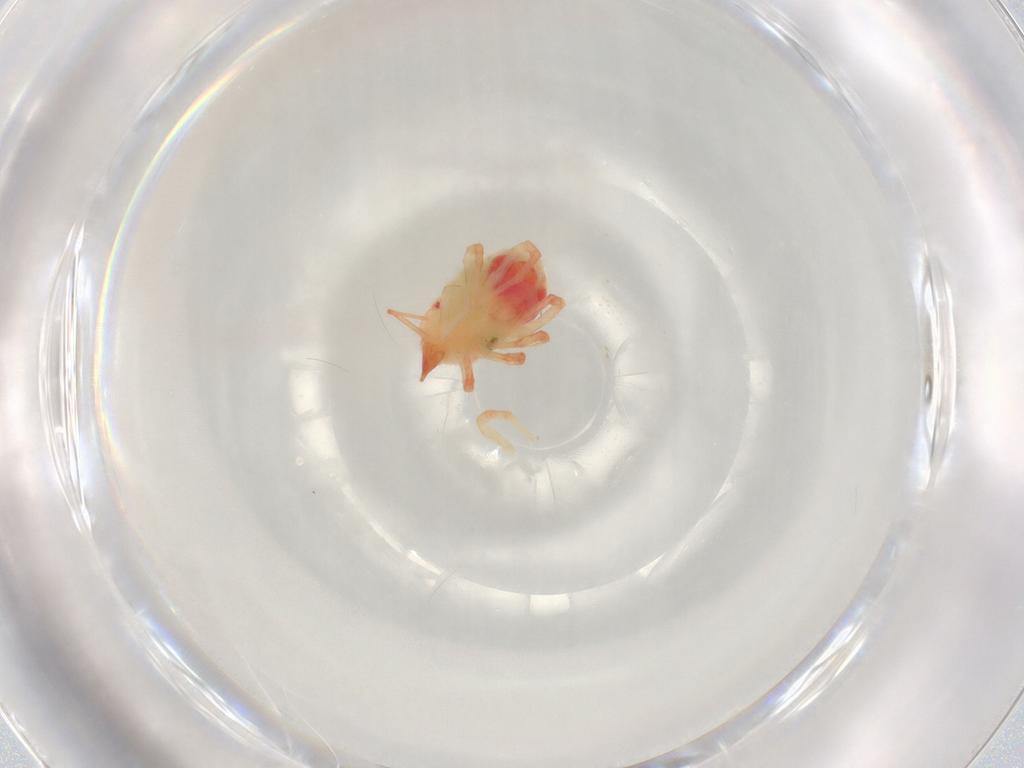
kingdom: Animalia
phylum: Arthropoda
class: Arachnida
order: Trombidiformes
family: Bdellidae
